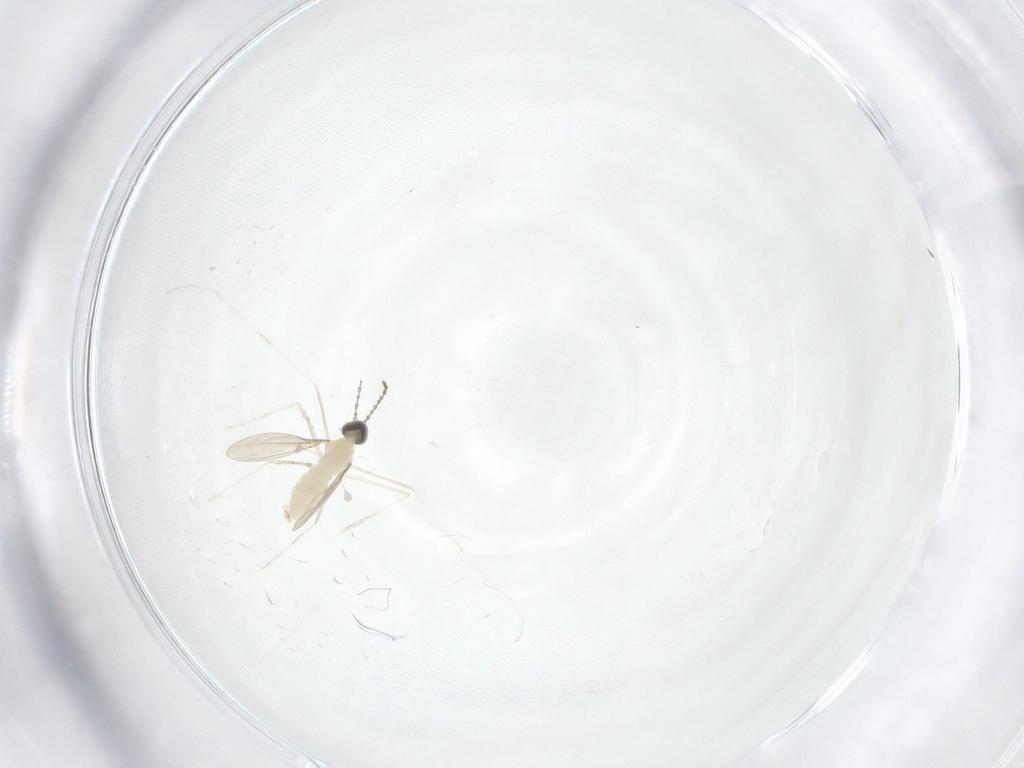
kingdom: Animalia
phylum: Arthropoda
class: Insecta
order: Diptera
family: Cecidomyiidae
